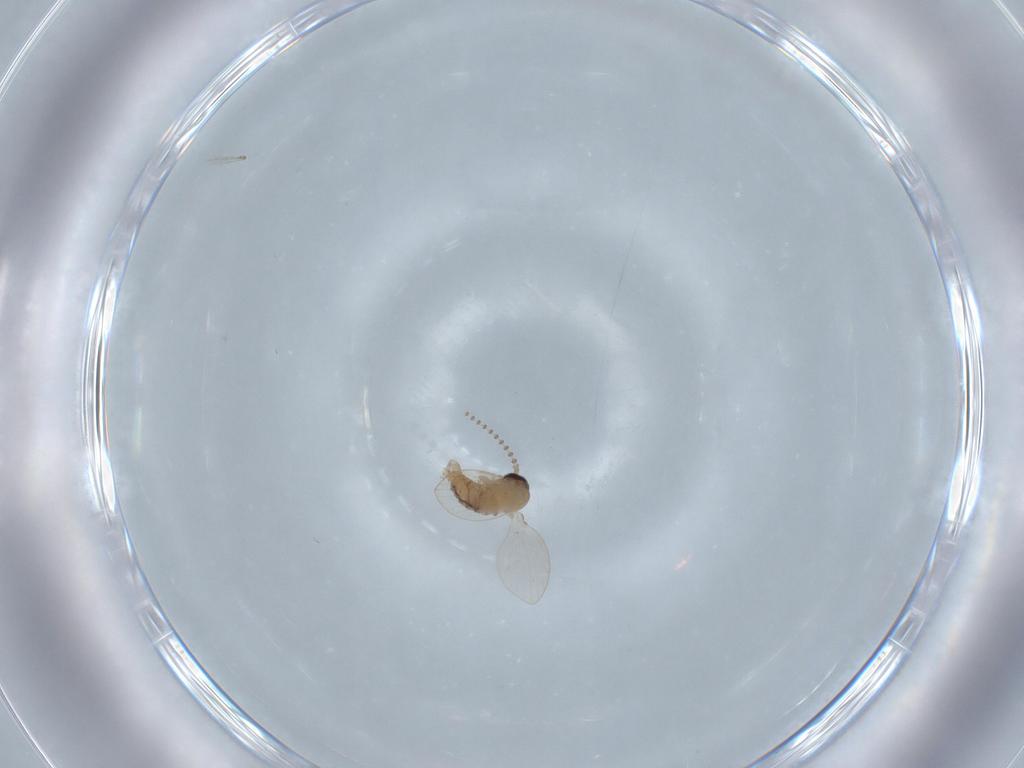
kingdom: Animalia
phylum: Arthropoda
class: Insecta
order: Diptera
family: Psychodidae
